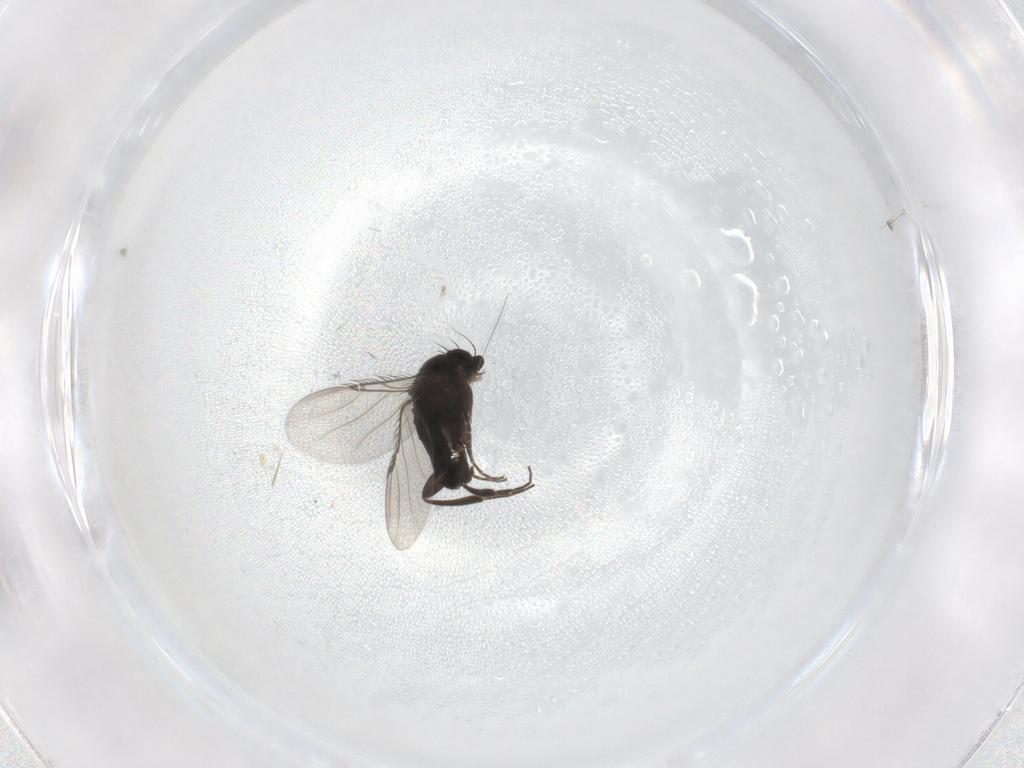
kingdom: Animalia
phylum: Arthropoda
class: Insecta
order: Diptera
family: Phoridae
